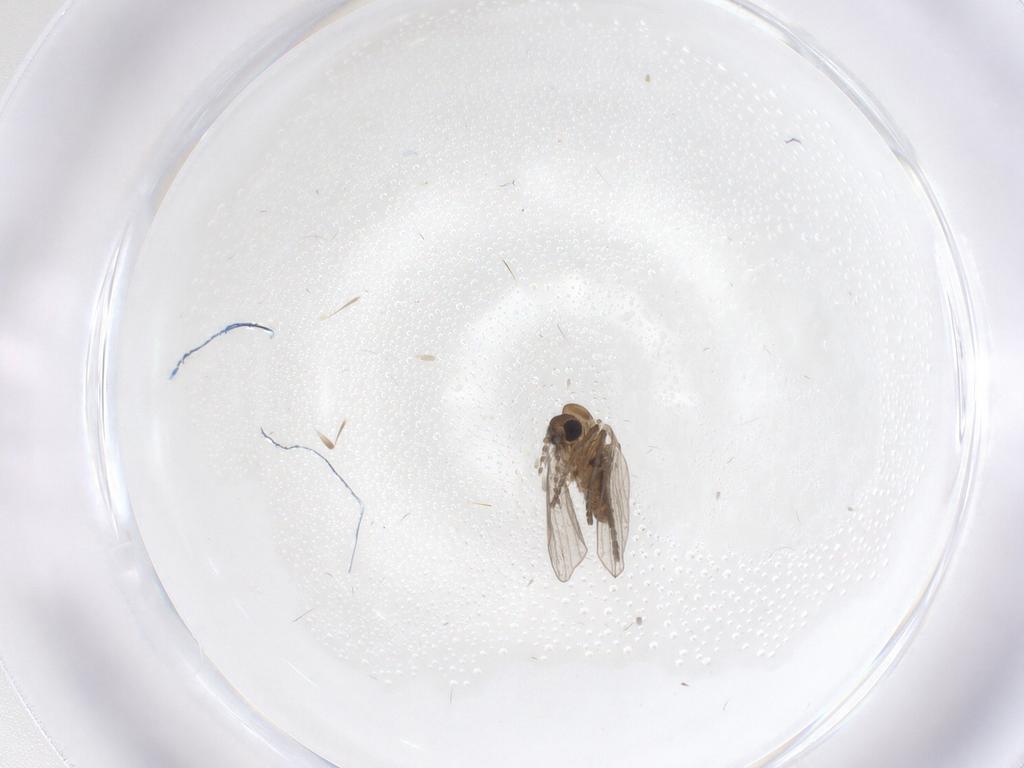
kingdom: Animalia
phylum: Arthropoda
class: Insecta
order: Diptera
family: Psychodidae
